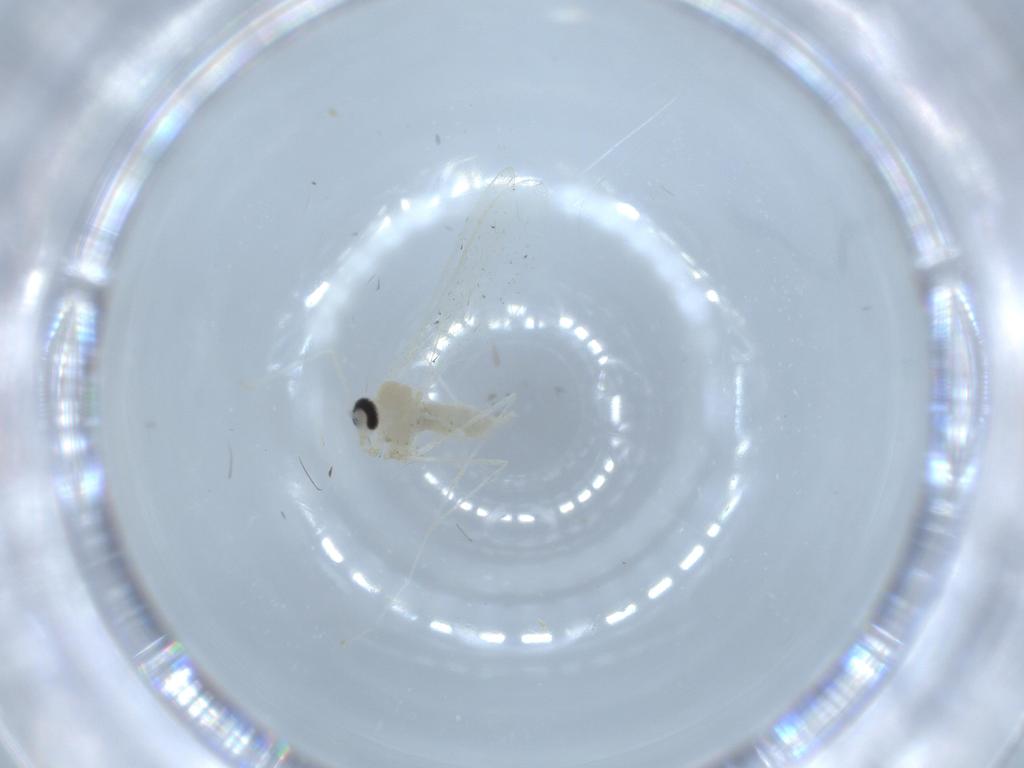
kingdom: Animalia
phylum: Arthropoda
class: Insecta
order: Diptera
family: Cecidomyiidae
